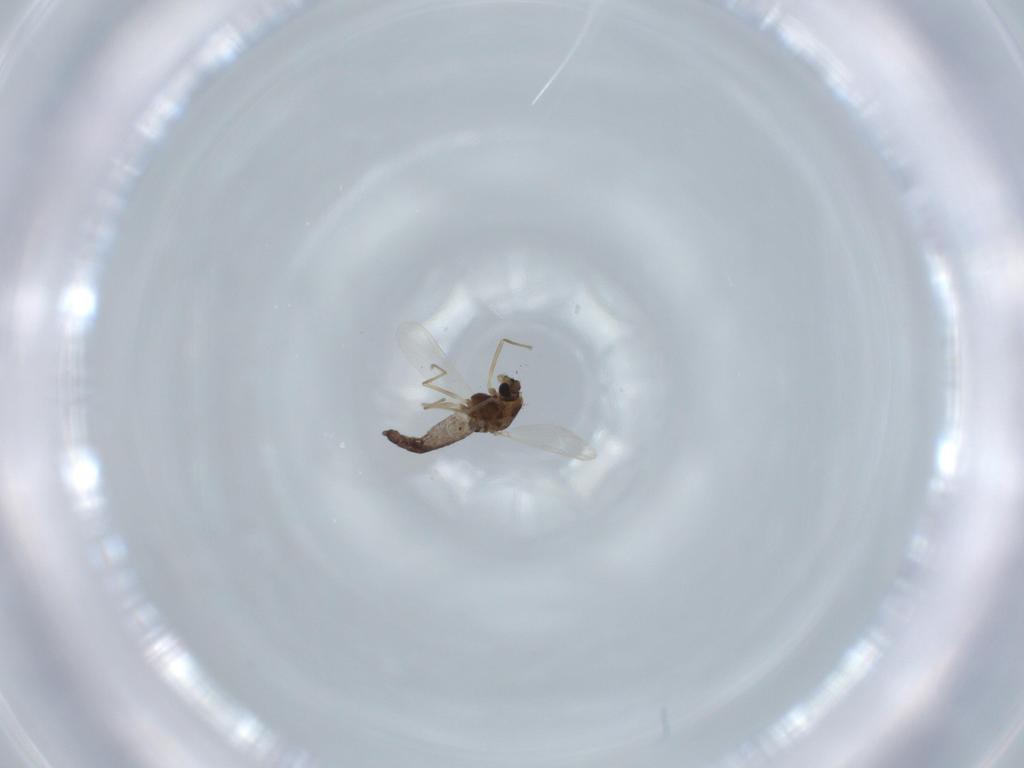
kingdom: Animalia
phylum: Arthropoda
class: Insecta
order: Diptera
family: Chironomidae
